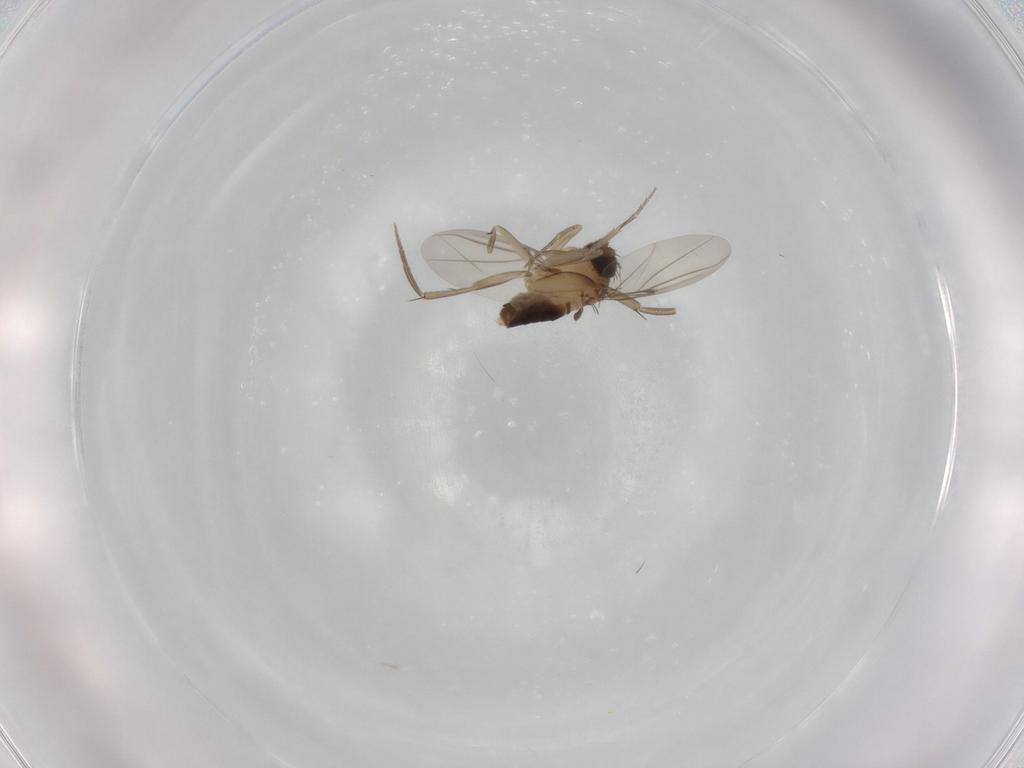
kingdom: Animalia
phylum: Arthropoda
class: Insecta
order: Diptera
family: Phoridae
